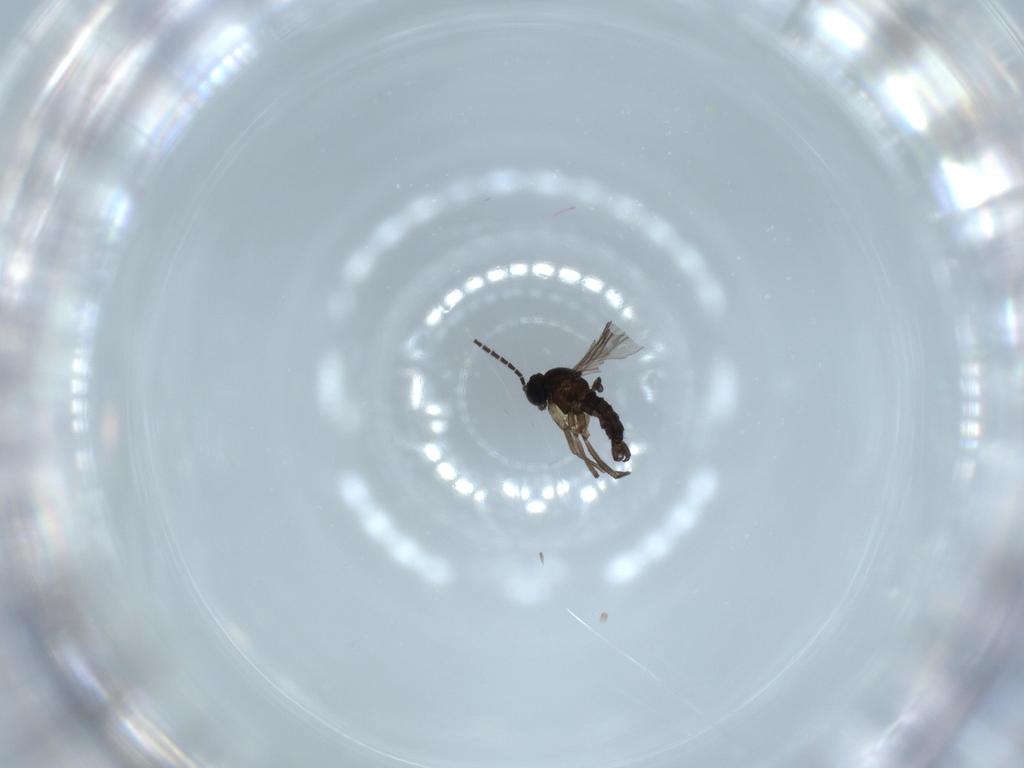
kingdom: Animalia
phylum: Arthropoda
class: Insecta
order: Diptera
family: Sciaridae
